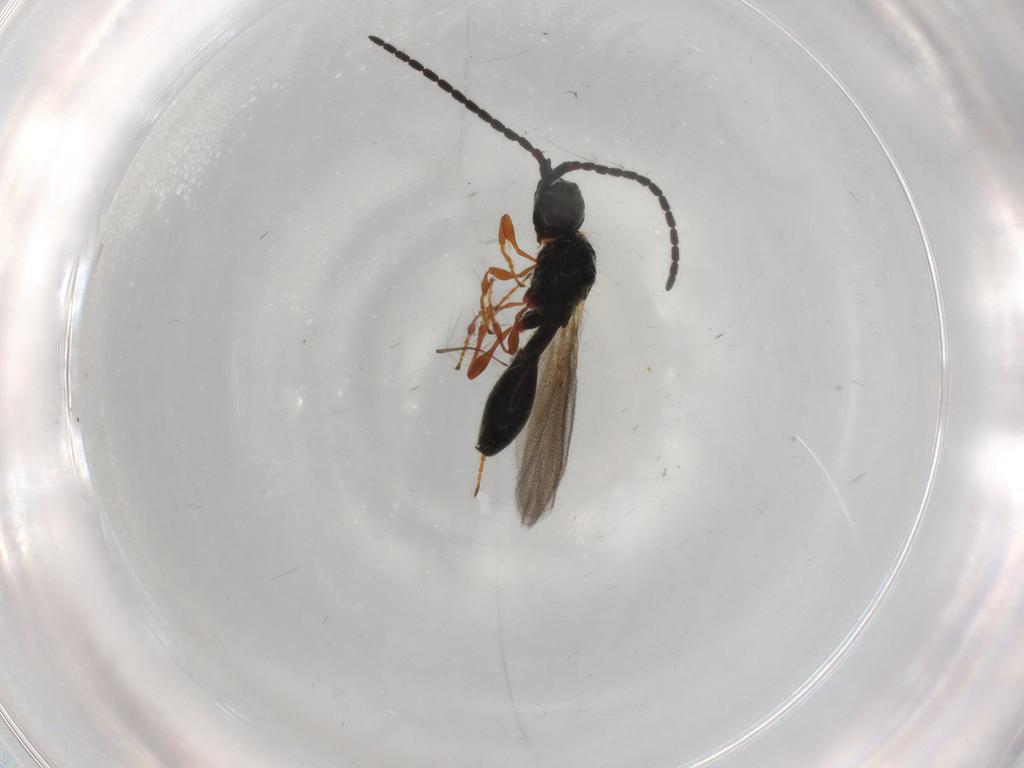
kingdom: Animalia
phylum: Arthropoda
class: Insecta
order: Hymenoptera
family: Diapriidae
